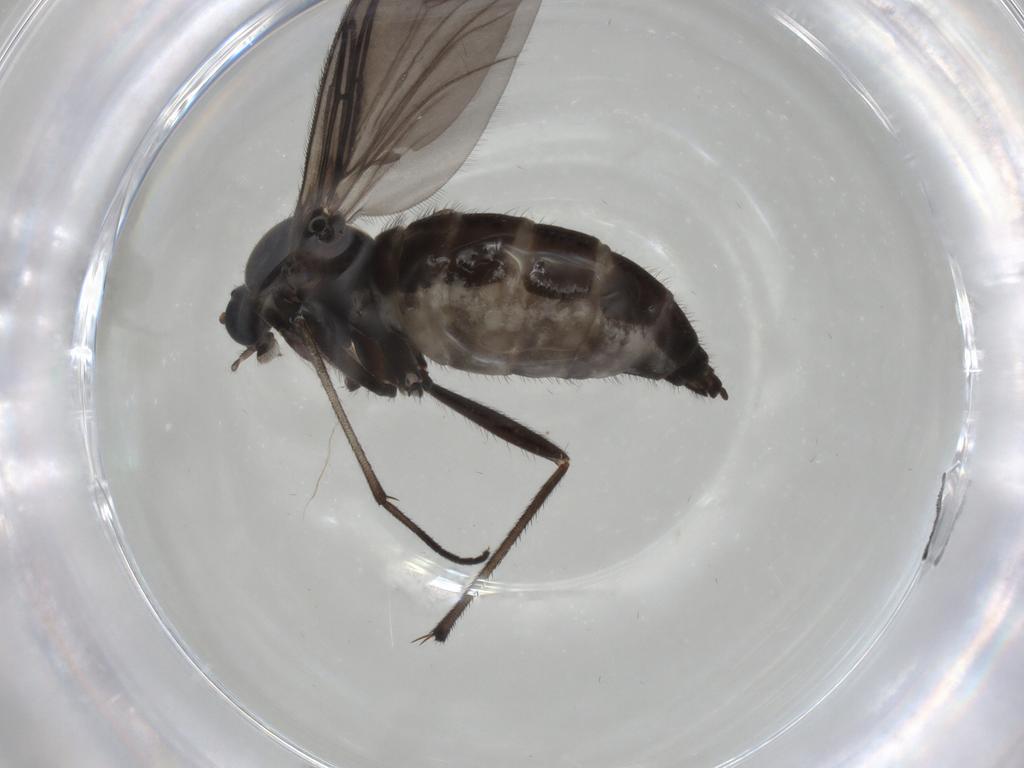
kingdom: Animalia
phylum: Arthropoda
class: Insecta
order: Diptera
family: Sciaridae
